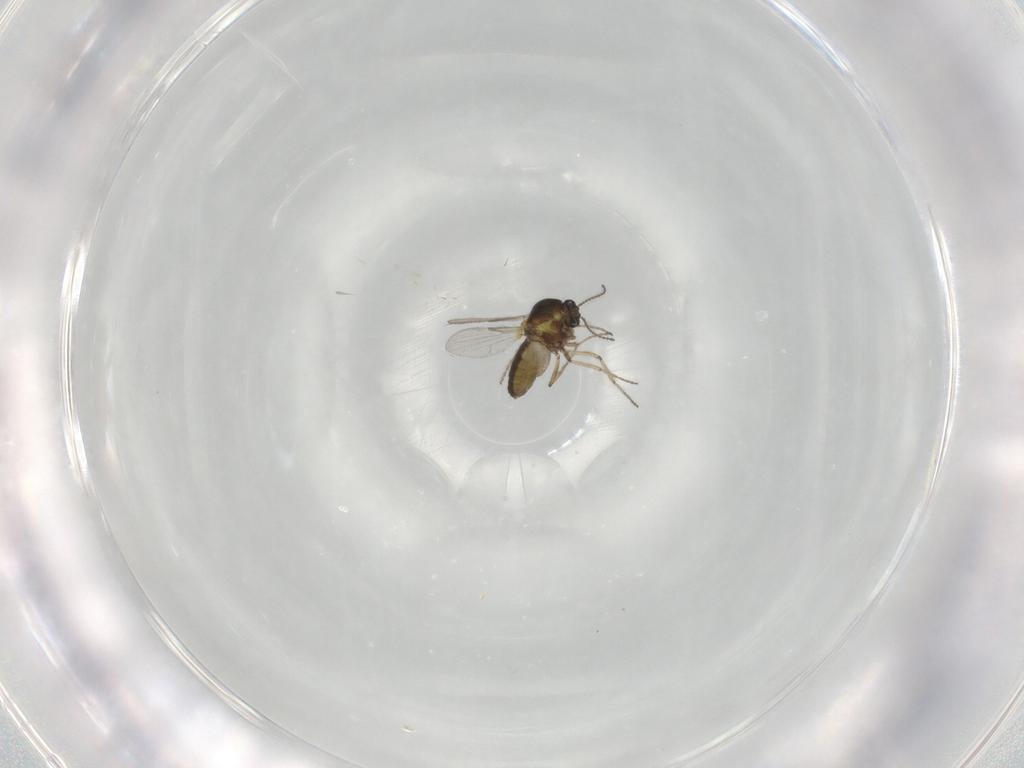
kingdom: Animalia
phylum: Arthropoda
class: Insecta
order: Diptera
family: Ceratopogonidae
